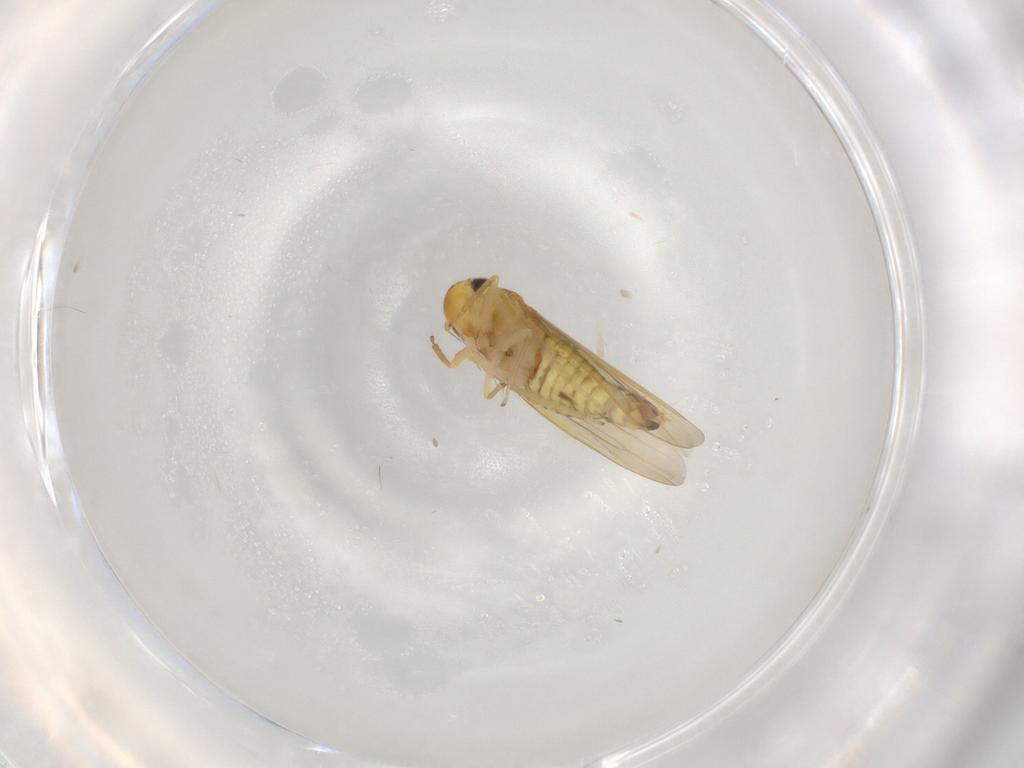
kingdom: Animalia
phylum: Arthropoda
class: Insecta
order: Hemiptera
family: Cicadellidae
